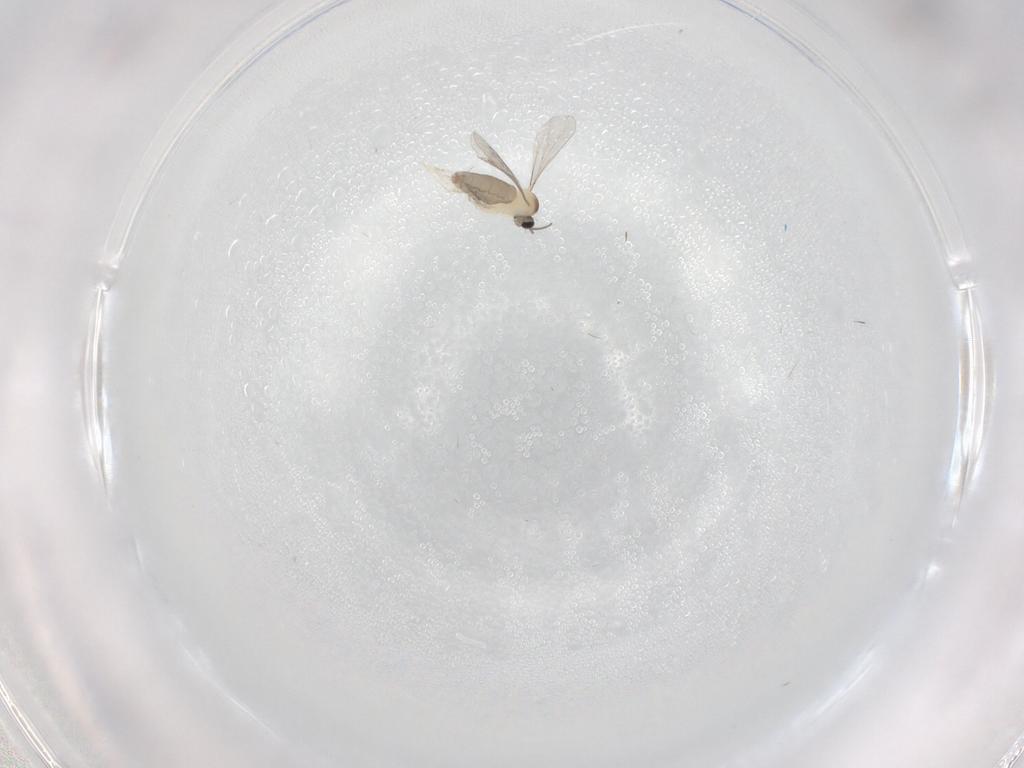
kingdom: Animalia
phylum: Arthropoda
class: Insecta
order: Diptera
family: Cecidomyiidae
